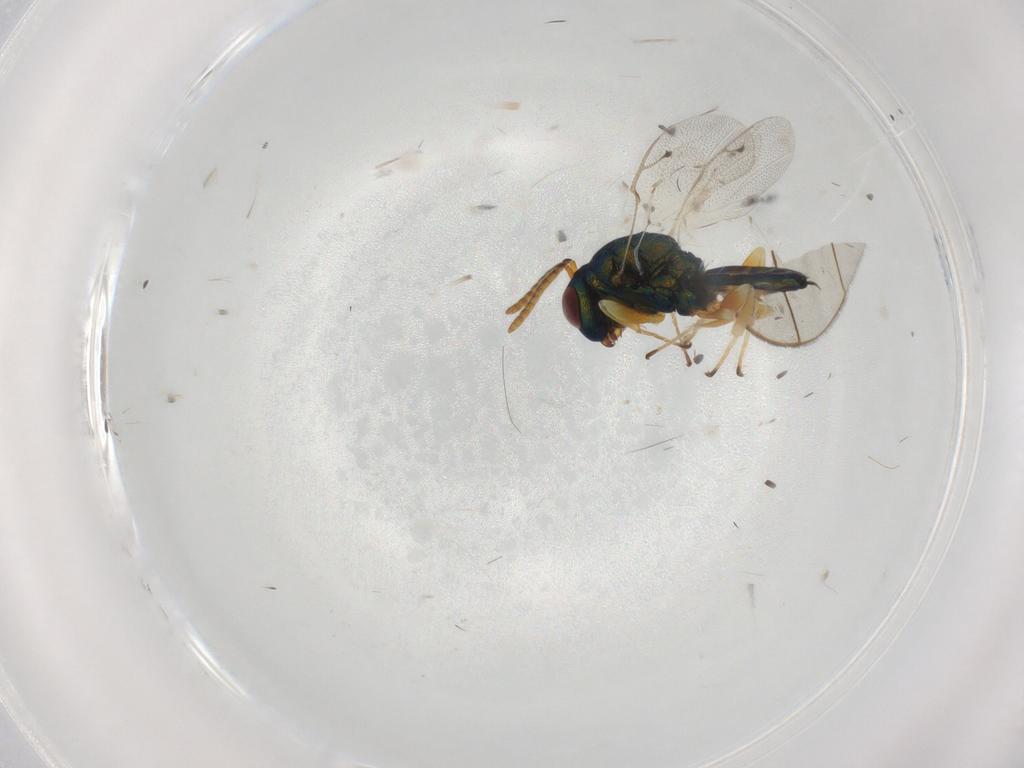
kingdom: Animalia
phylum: Arthropoda
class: Insecta
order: Hymenoptera
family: Pteromalidae
